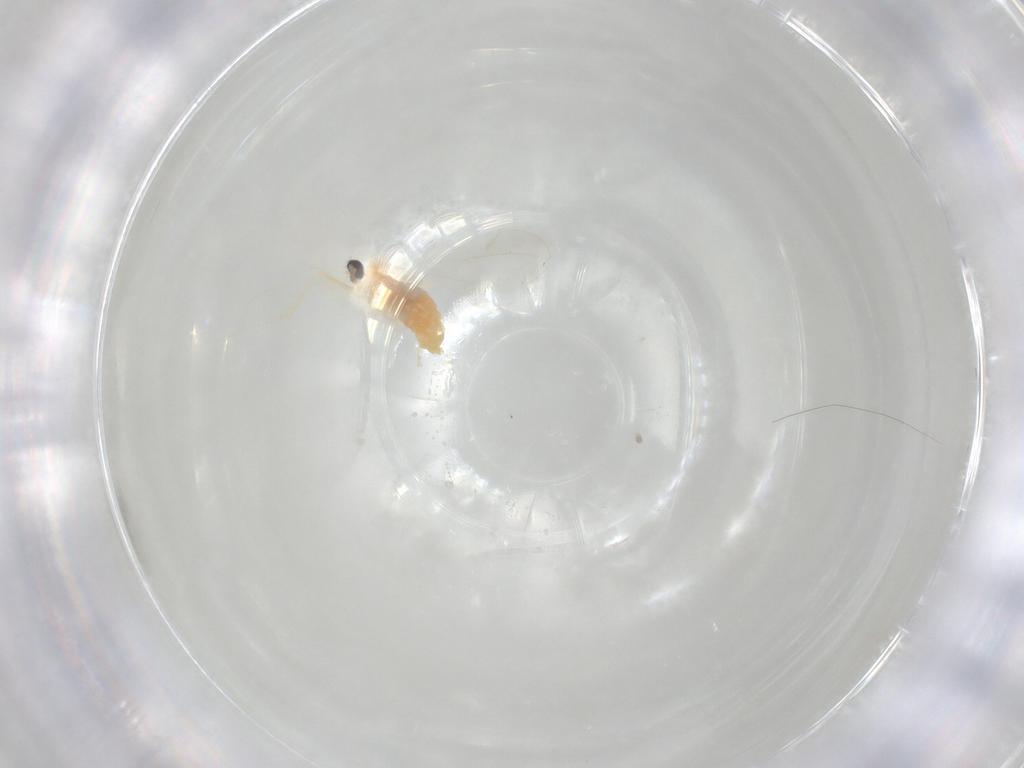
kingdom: Animalia
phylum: Arthropoda
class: Insecta
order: Diptera
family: Cecidomyiidae
